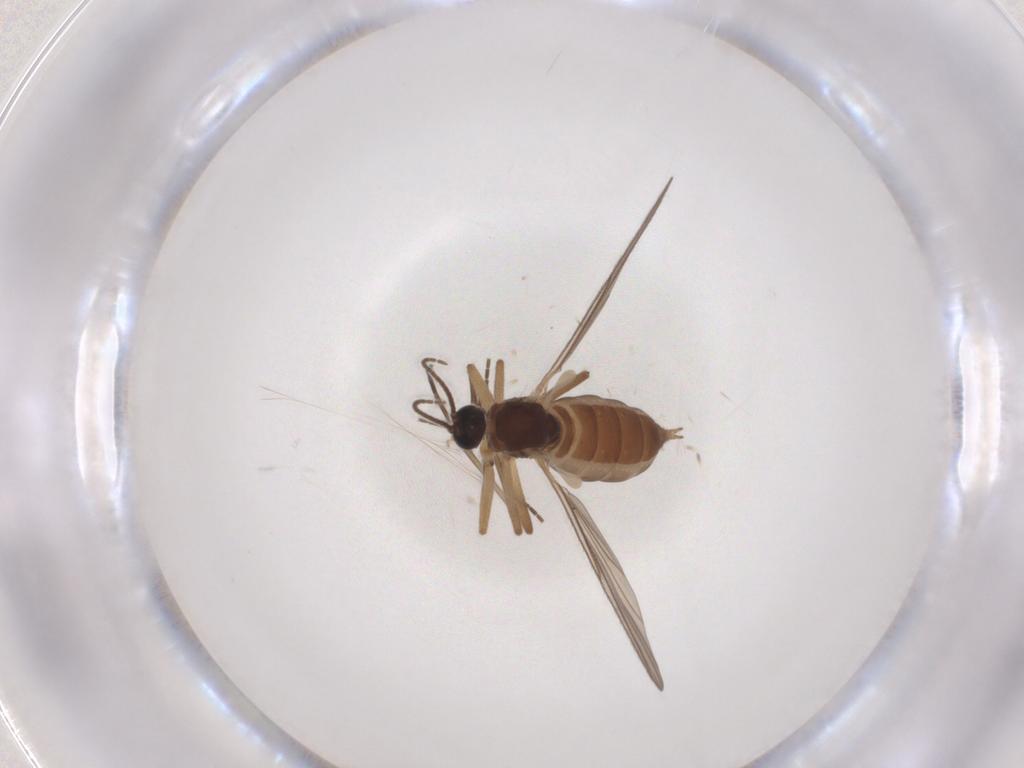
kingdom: Animalia
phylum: Arthropoda
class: Insecta
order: Diptera
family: Sciaridae
